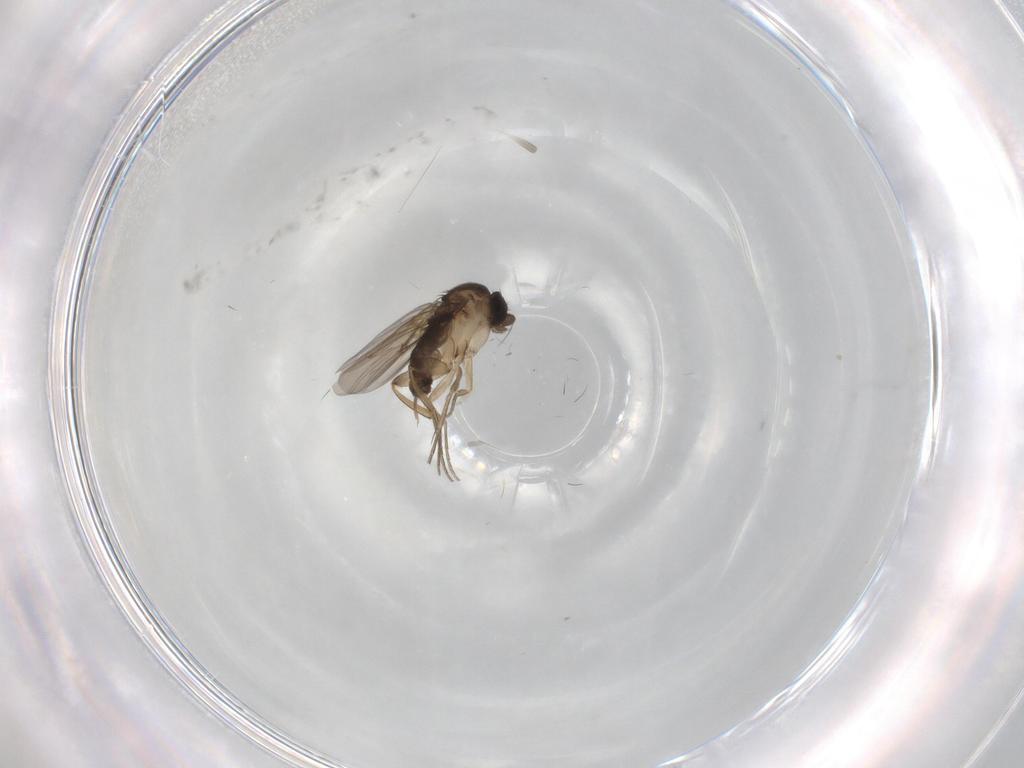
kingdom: Animalia
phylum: Arthropoda
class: Insecta
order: Diptera
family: Phoridae
